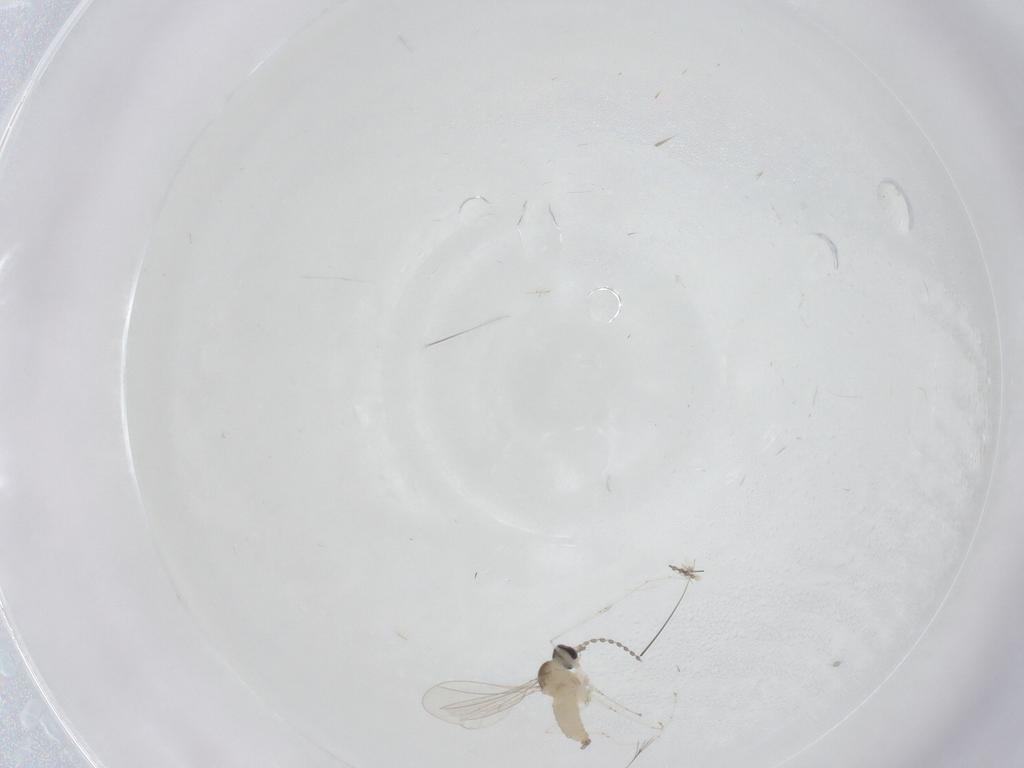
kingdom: Animalia
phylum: Arthropoda
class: Insecta
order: Diptera
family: Cecidomyiidae
